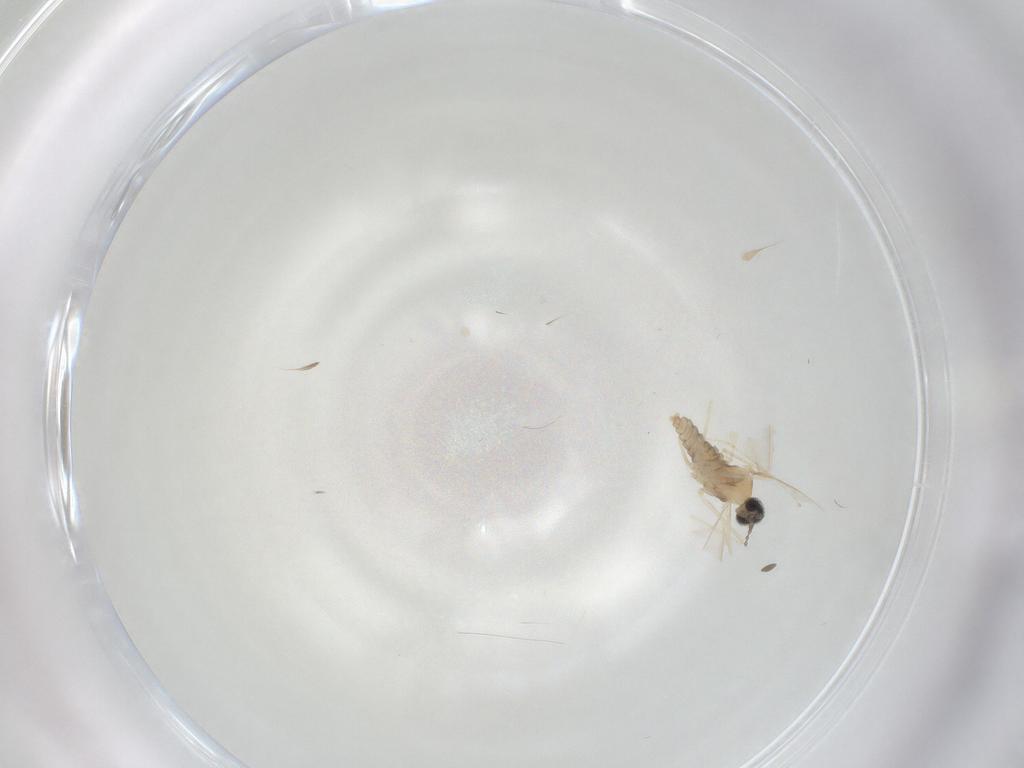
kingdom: Animalia
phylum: Arthropoda
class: Insecta
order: Diptera
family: Cecidomyiidae
